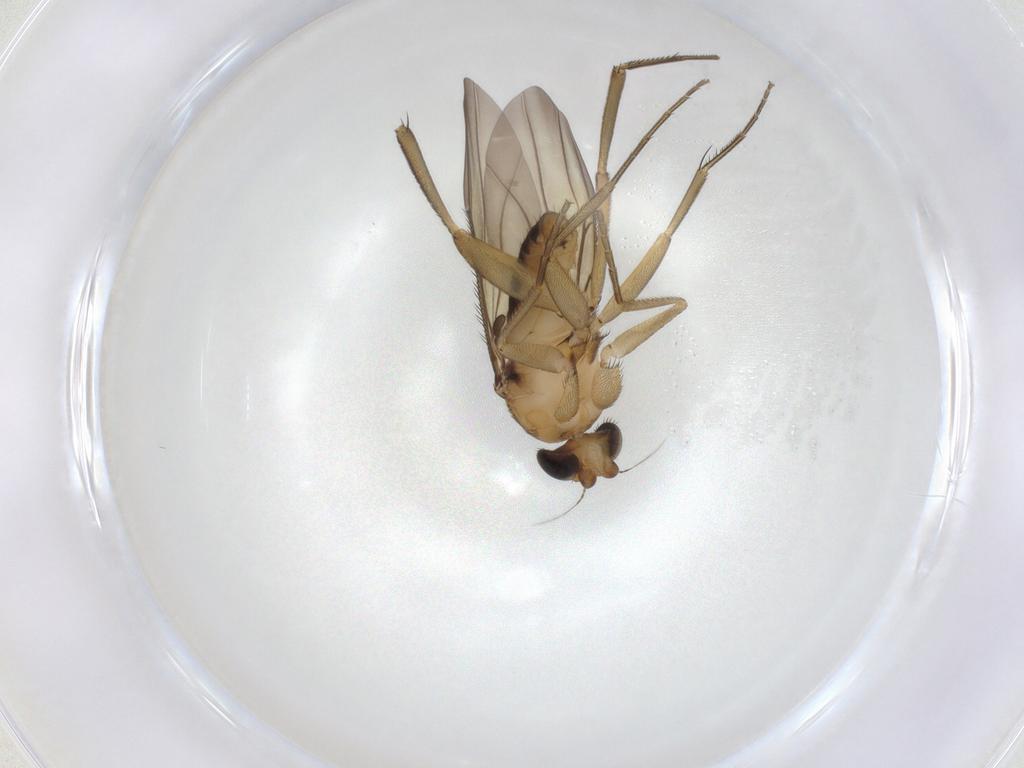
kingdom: Animalia
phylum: Arthropoda
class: Insecta
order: Diptera
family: Phoridae
